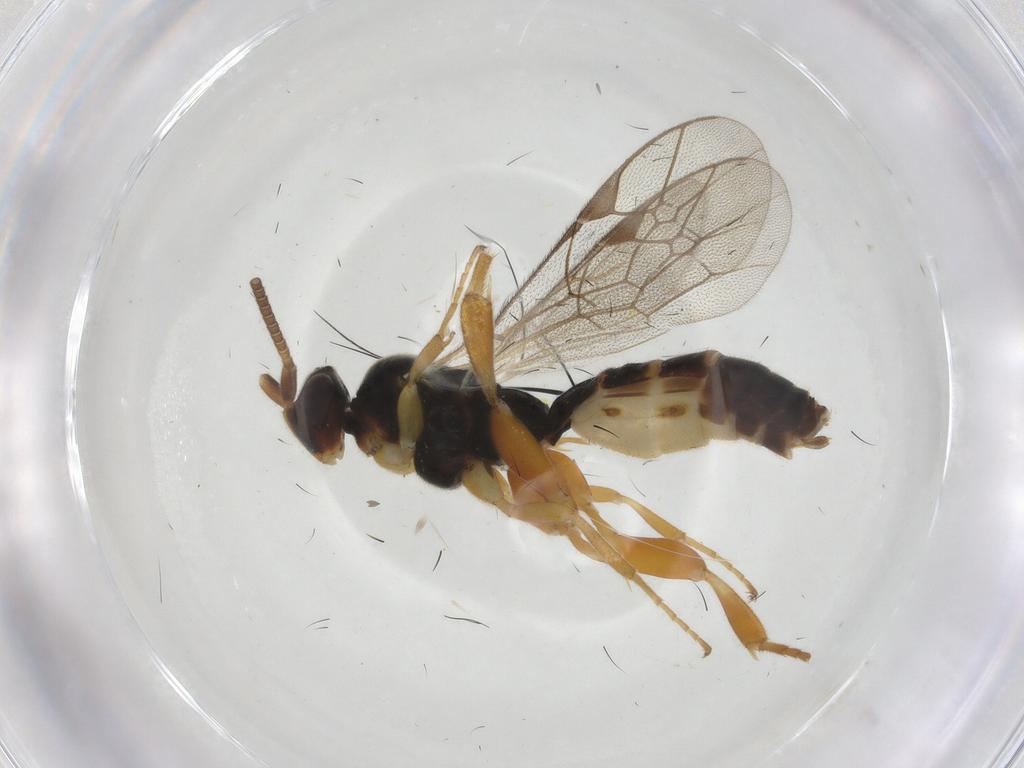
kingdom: Animalia
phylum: Arthropoda
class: Insecta
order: Hymenoptera
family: Ichneumonidae
